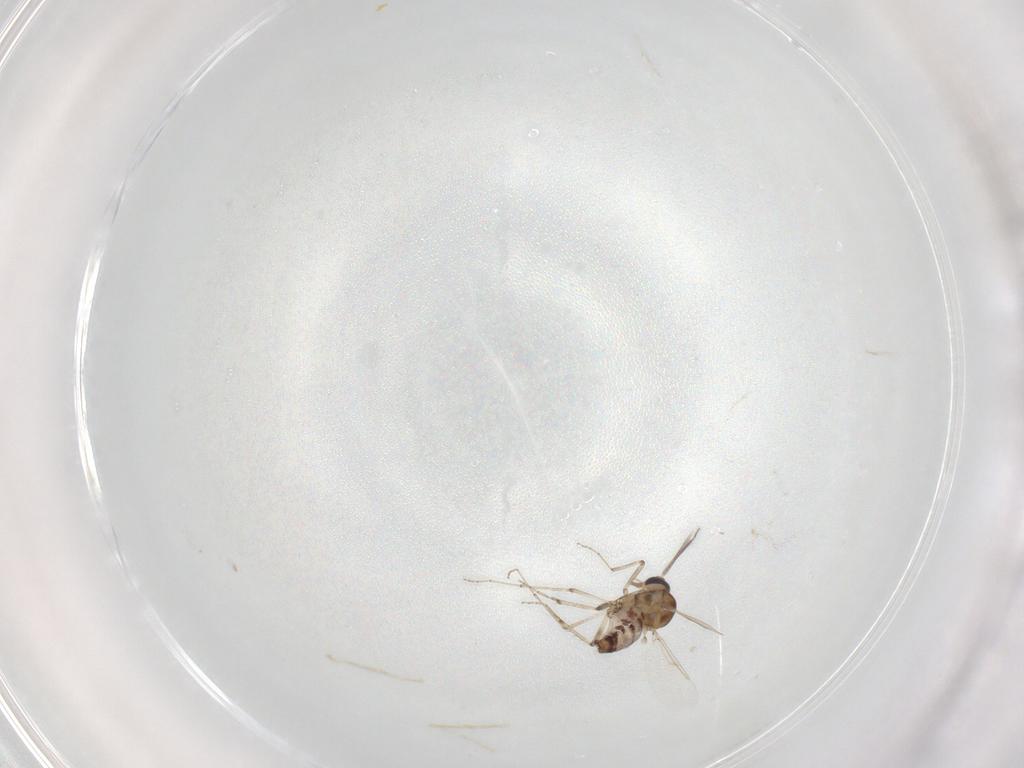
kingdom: Animalia
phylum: Arthropoda
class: Insecta
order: Diptera
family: Ceratopogonidae
